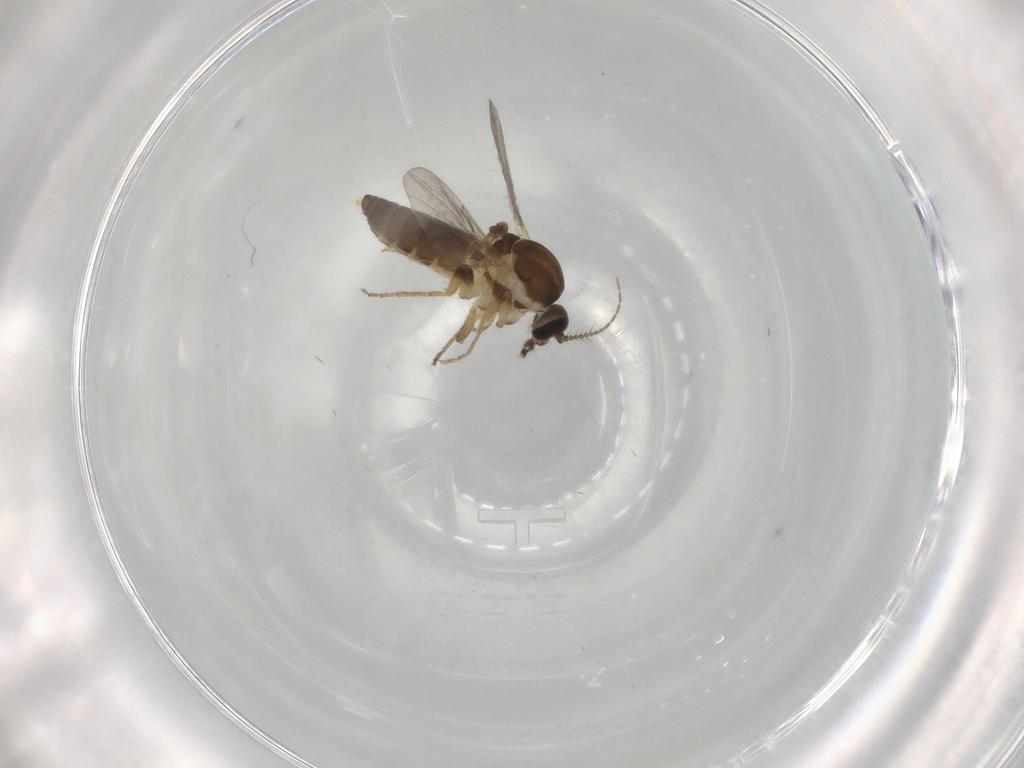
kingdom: Animalia
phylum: Arthropoda
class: Insecta
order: Diptera
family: Ceratopogonidae
